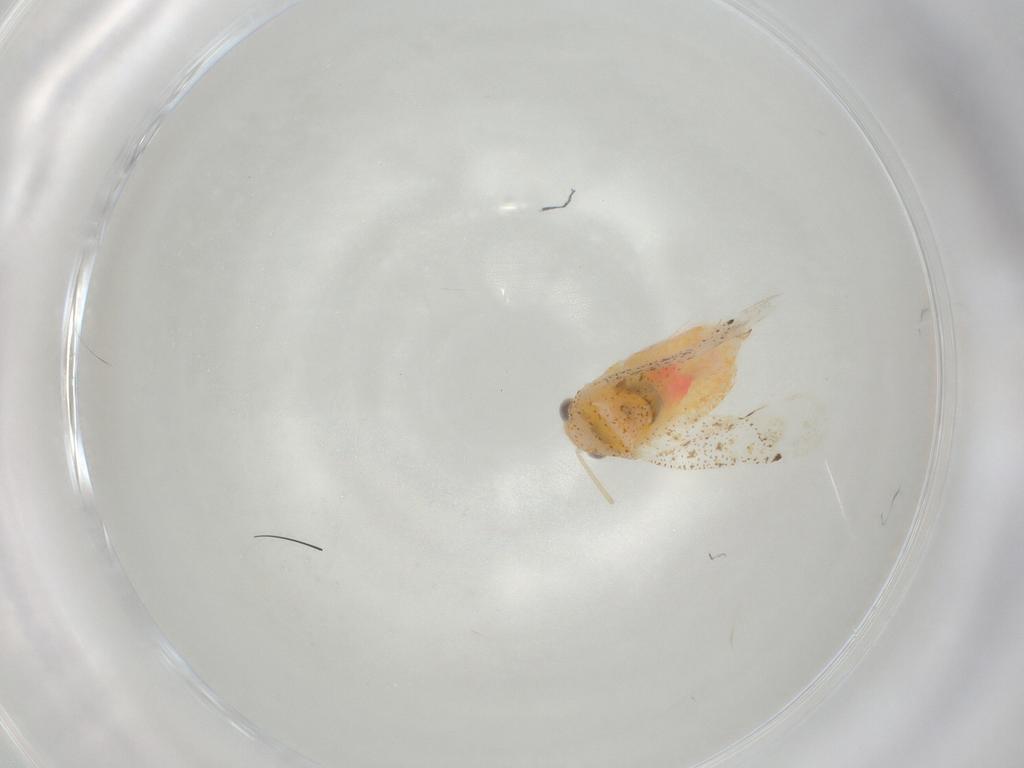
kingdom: Animalia
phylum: Arthropoda
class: Insecta
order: Hemiptera
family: Miridae
